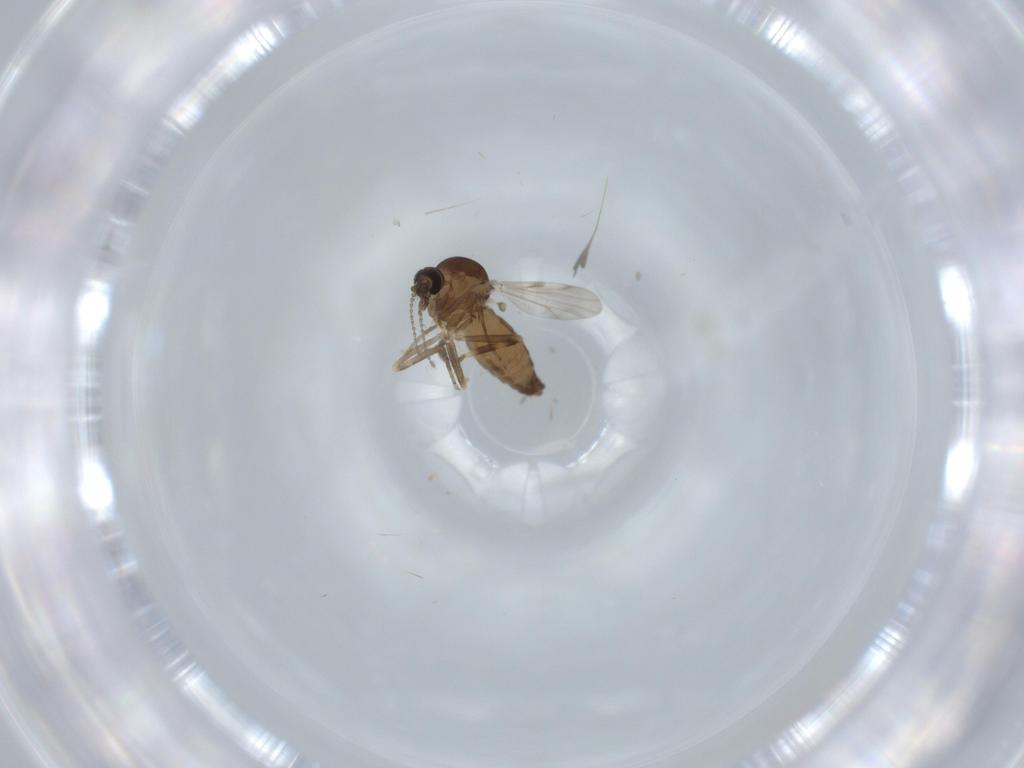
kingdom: Animalia
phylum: Arthropoda
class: Insecta
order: Diptera
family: Ceratopogonidae
